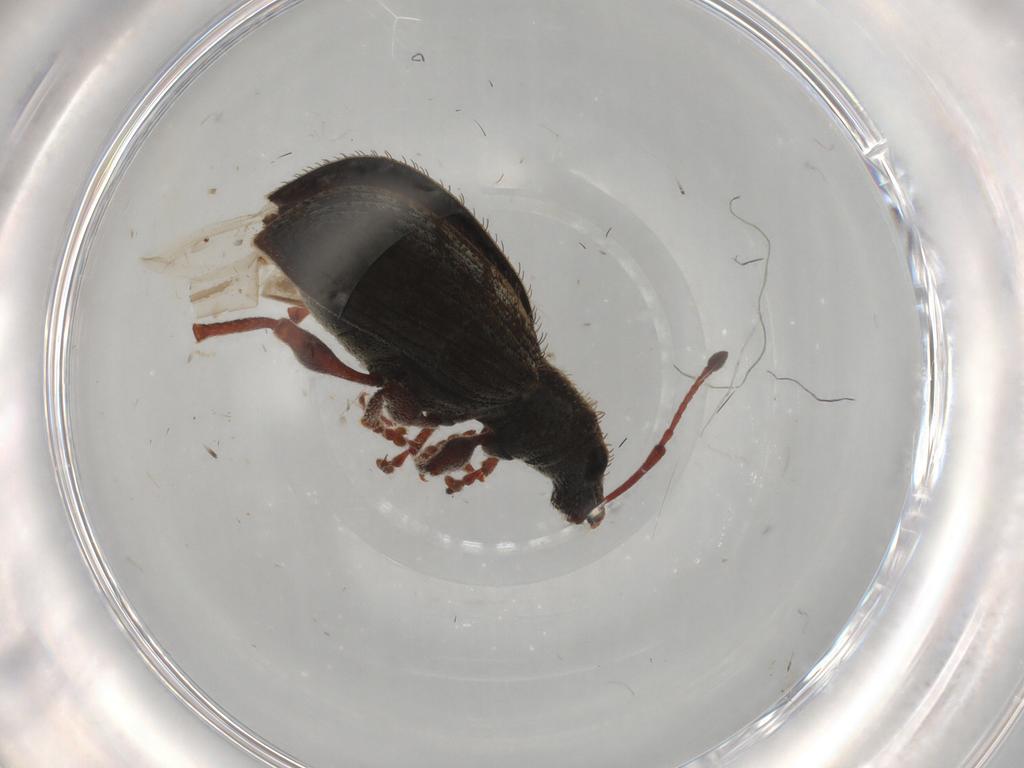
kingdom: Animalia
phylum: Arthropoda
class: Insecta
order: Coleoptera
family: Curculionidae
